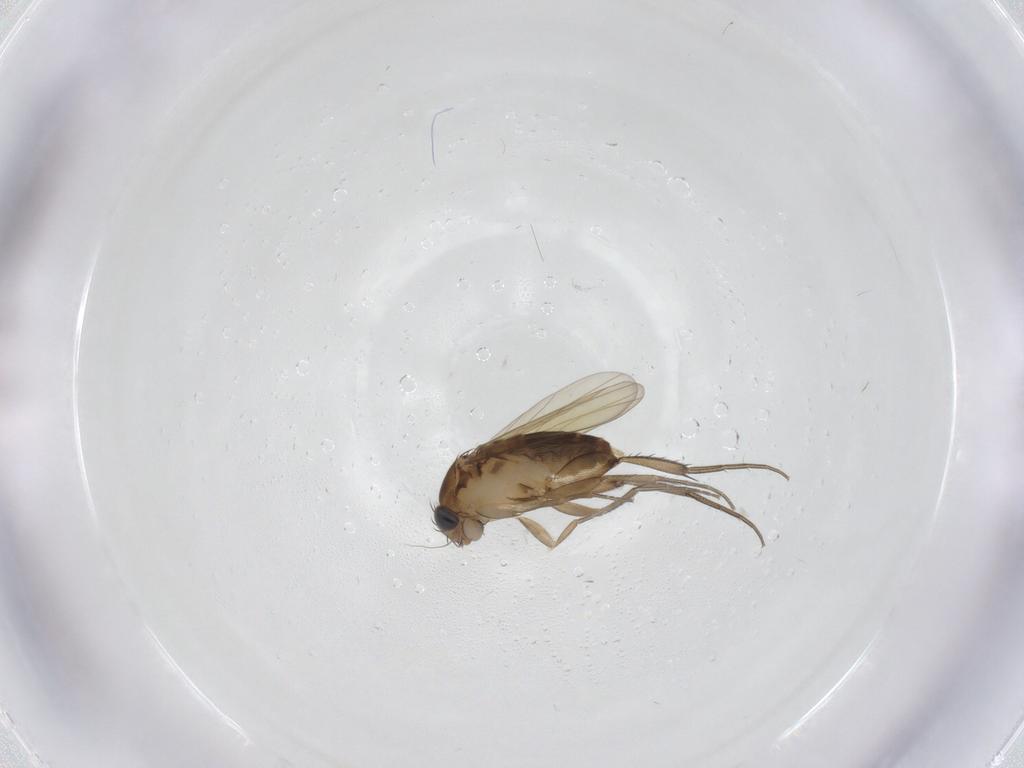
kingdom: Animalia
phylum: Arthropoda
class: Insecta
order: Diptera
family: Phoridae
